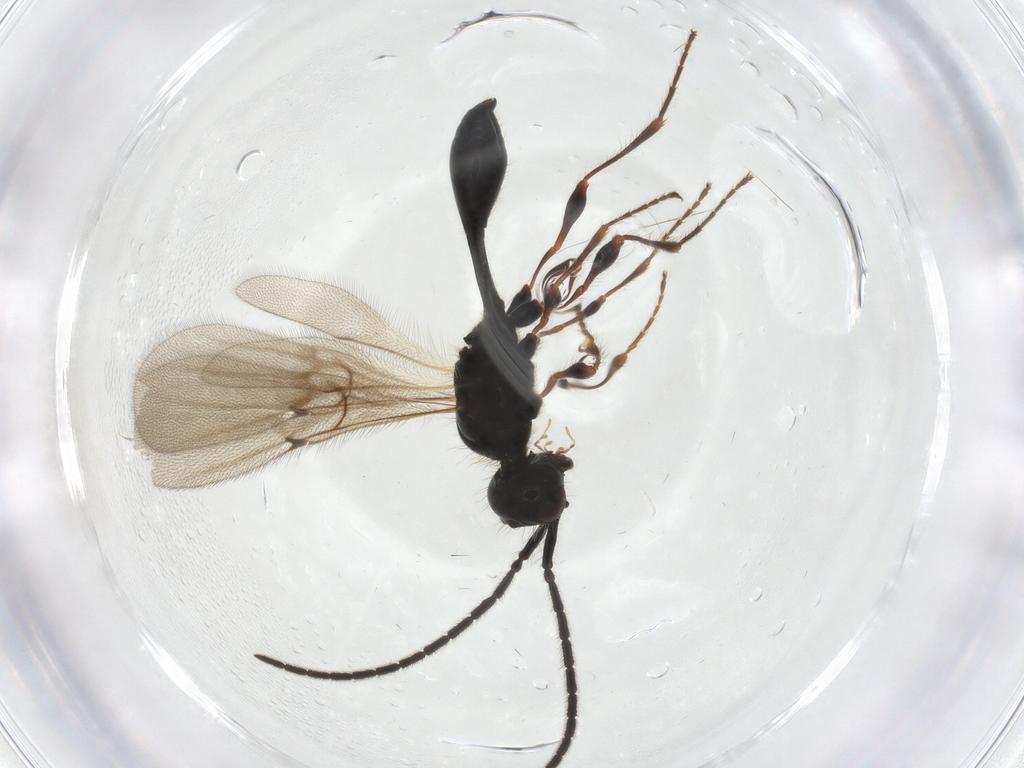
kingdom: Animalia
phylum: Arthropoda
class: Insecta
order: Hymenoptera
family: Diapriidae
